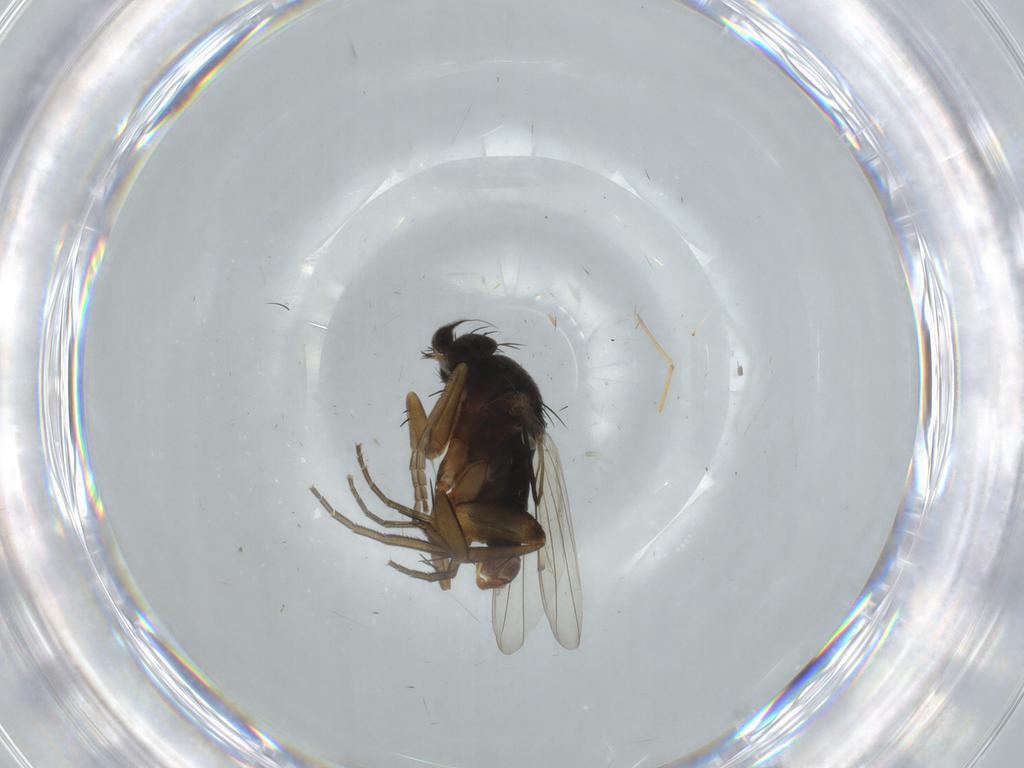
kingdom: Animalia
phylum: Arthropoda
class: Insecta
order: Diptera
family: Phoridae
